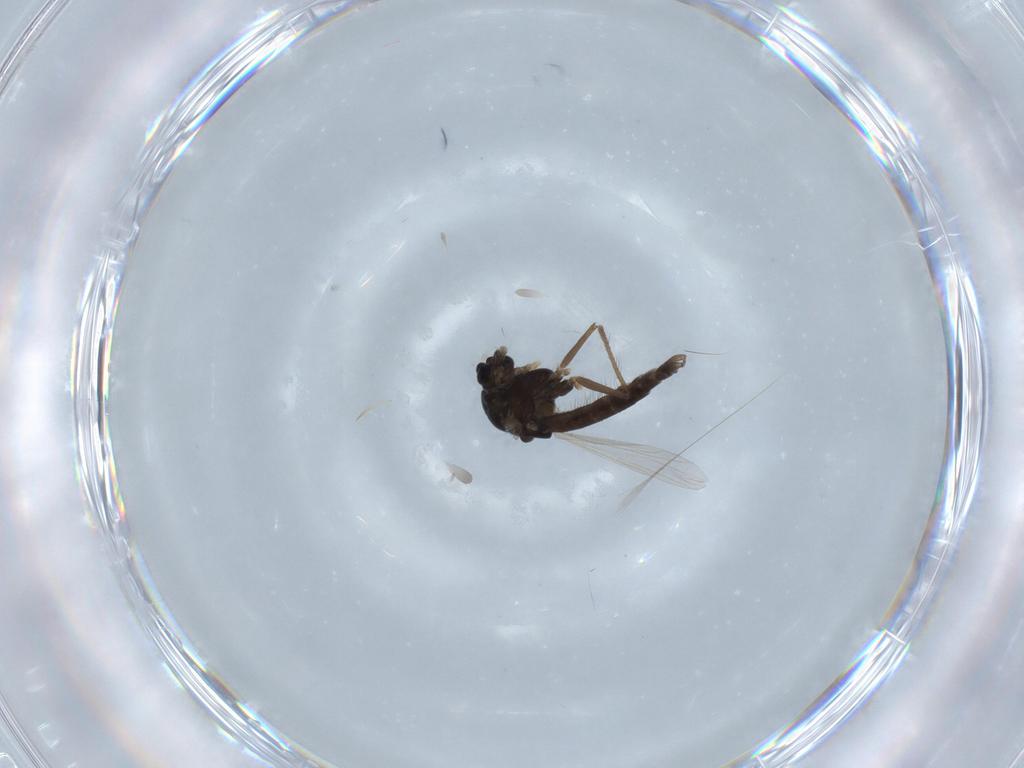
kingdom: Animalia
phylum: Arthropoda
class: Insecta
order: Diptera
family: Chironomidae
